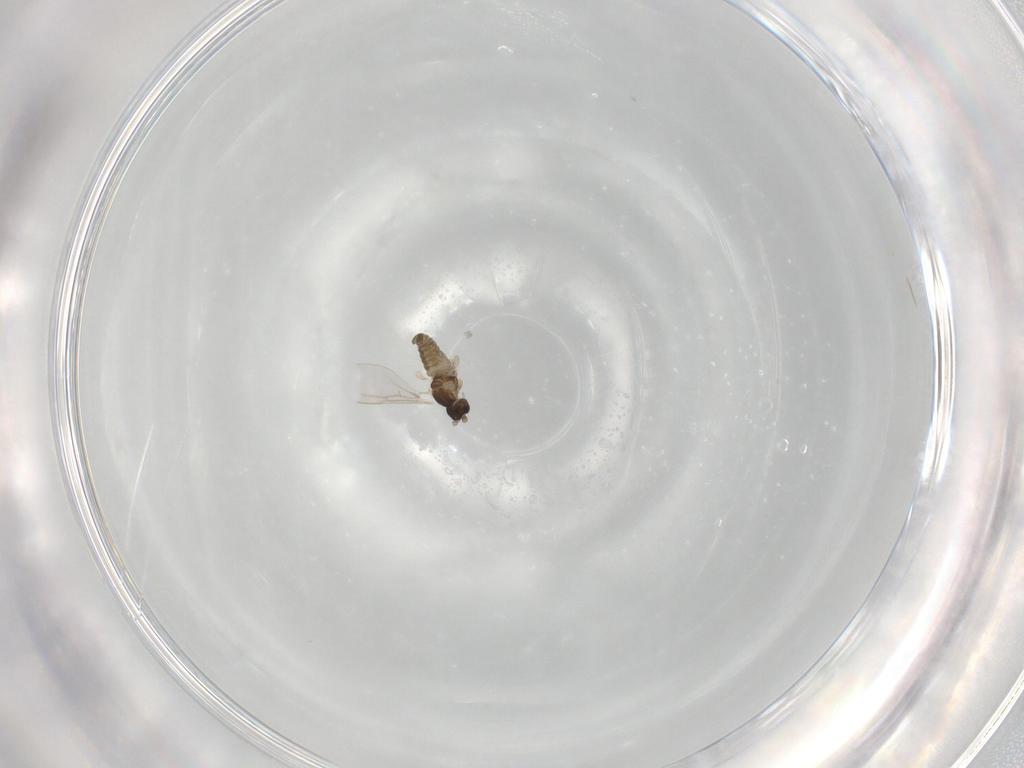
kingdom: Animalia
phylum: Arthropoda
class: Insecta
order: Diptera
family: Cecidomyiidae
